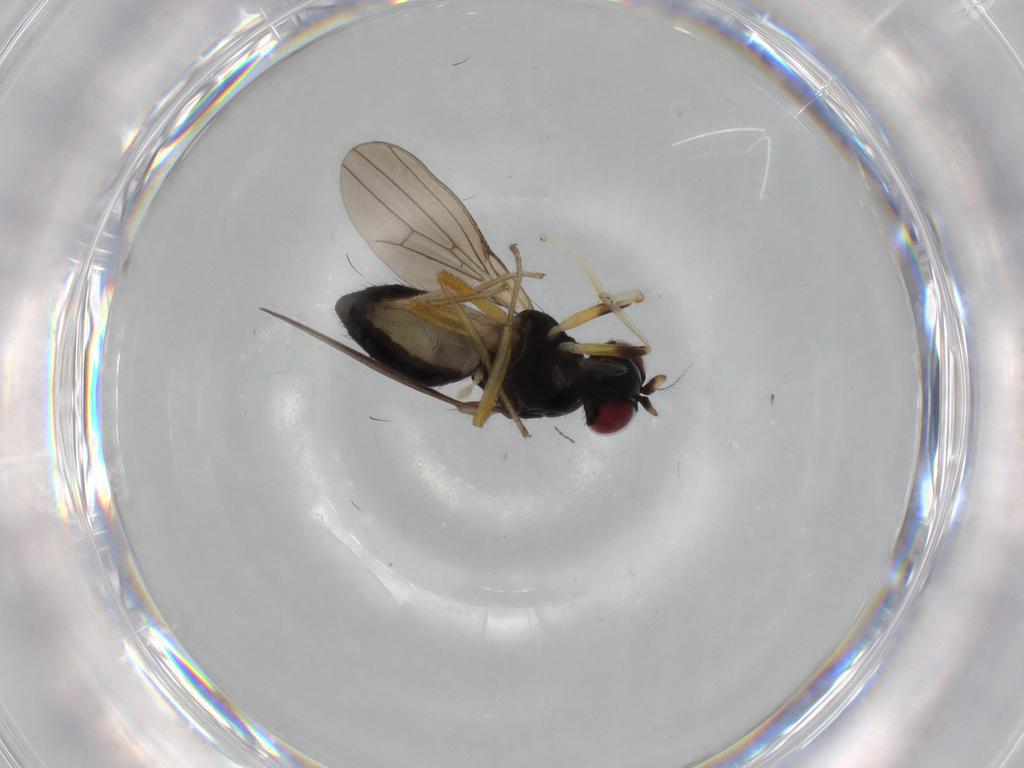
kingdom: Animalia
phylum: Arthropoda
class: Insecta
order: Diptera
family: Lauxaniidae
